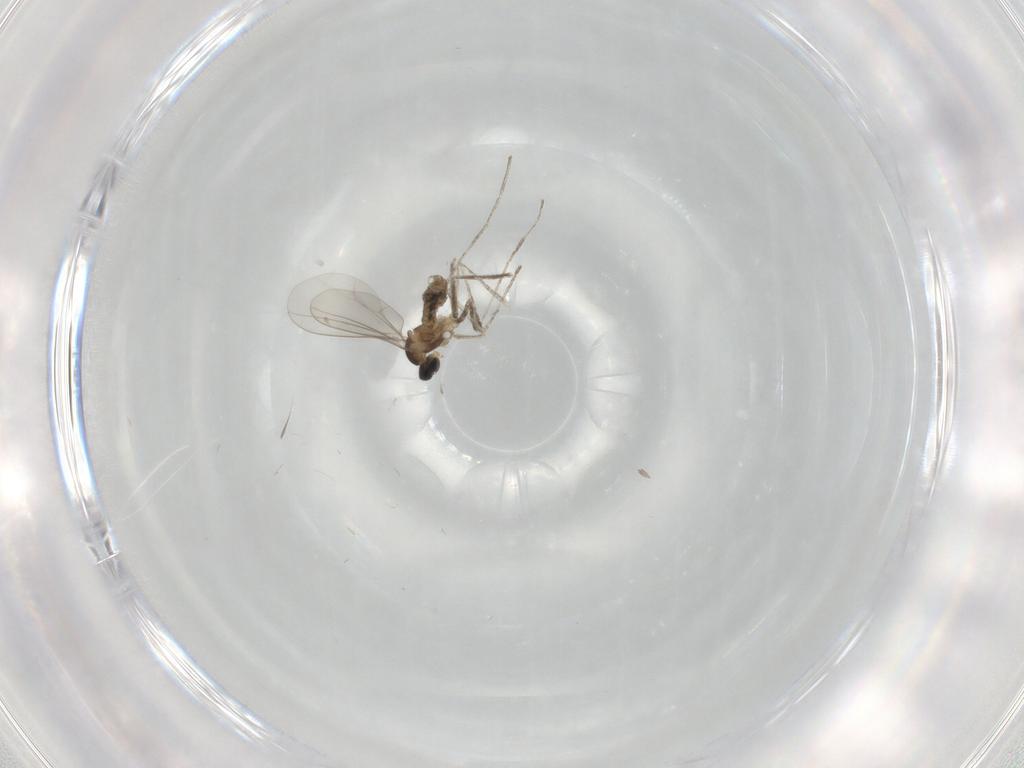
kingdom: Animalia
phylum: Arthropoda
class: Insecta
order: Diptera
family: Cecidomyiidae
